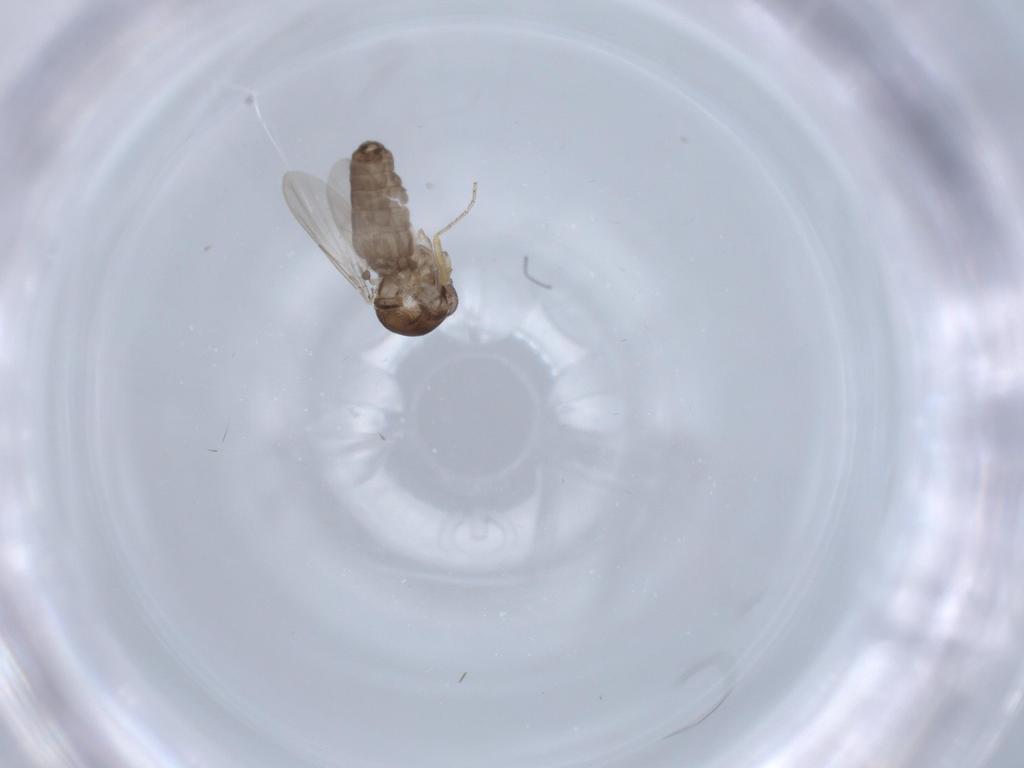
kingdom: Animalia
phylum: Arthropoda
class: Insecta
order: Diptera
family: Ceratopogonidae
